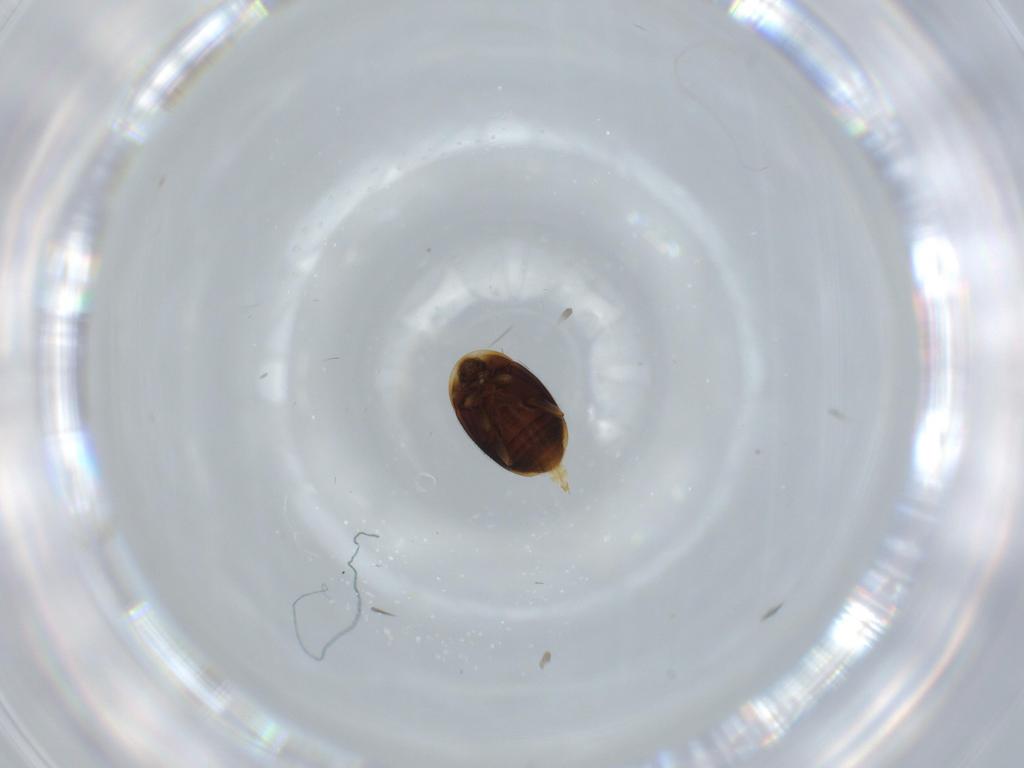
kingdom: Animalia
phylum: Arthropoda
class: Insecta
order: Coleoptera
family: Corylophidae
